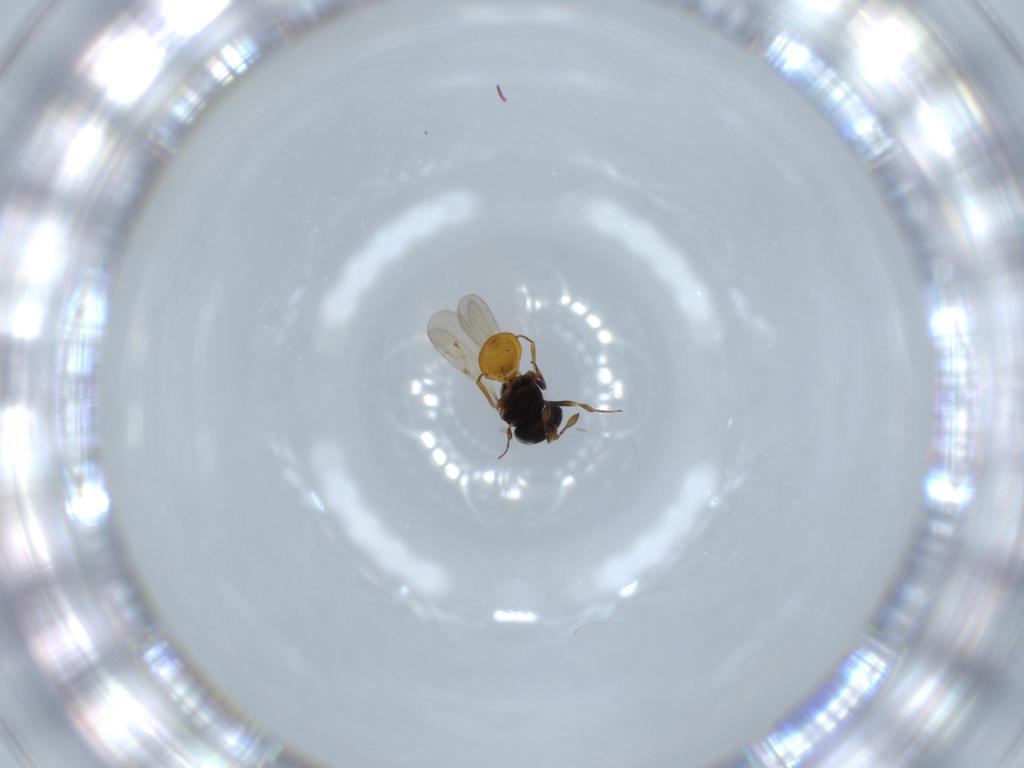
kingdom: Animalia
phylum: Arthropoda
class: Insecta
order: Hymenoptera
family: Scelionidae
